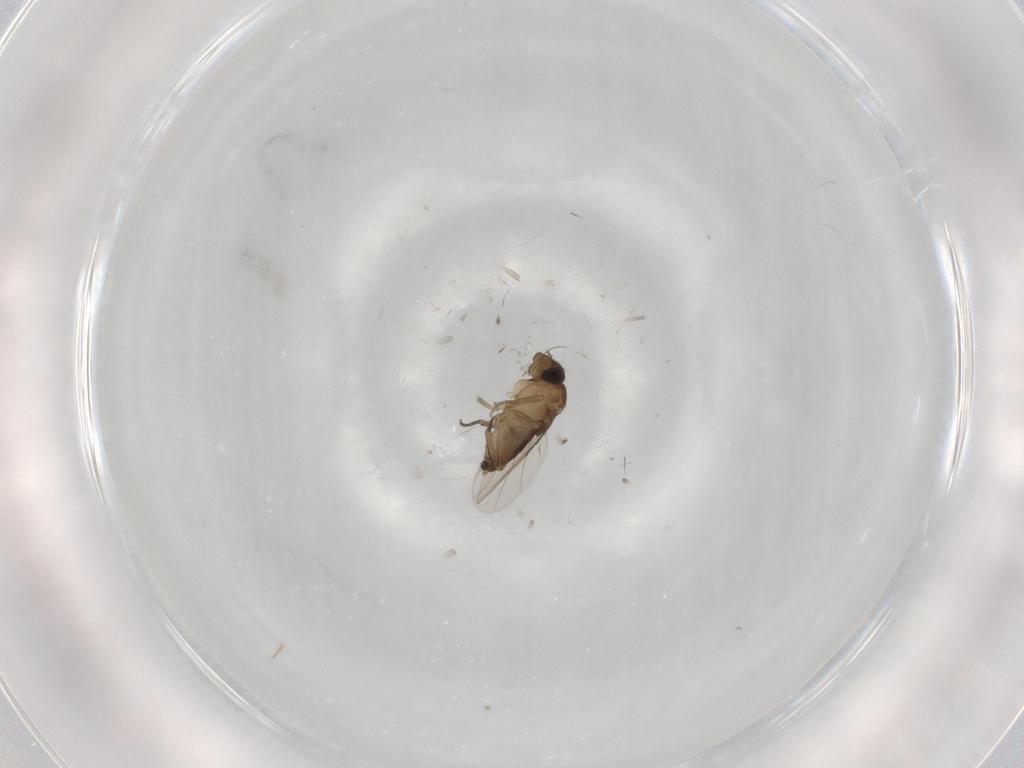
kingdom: Animalia
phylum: Arthropoda
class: Insecta
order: Diptera
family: Phoridae
